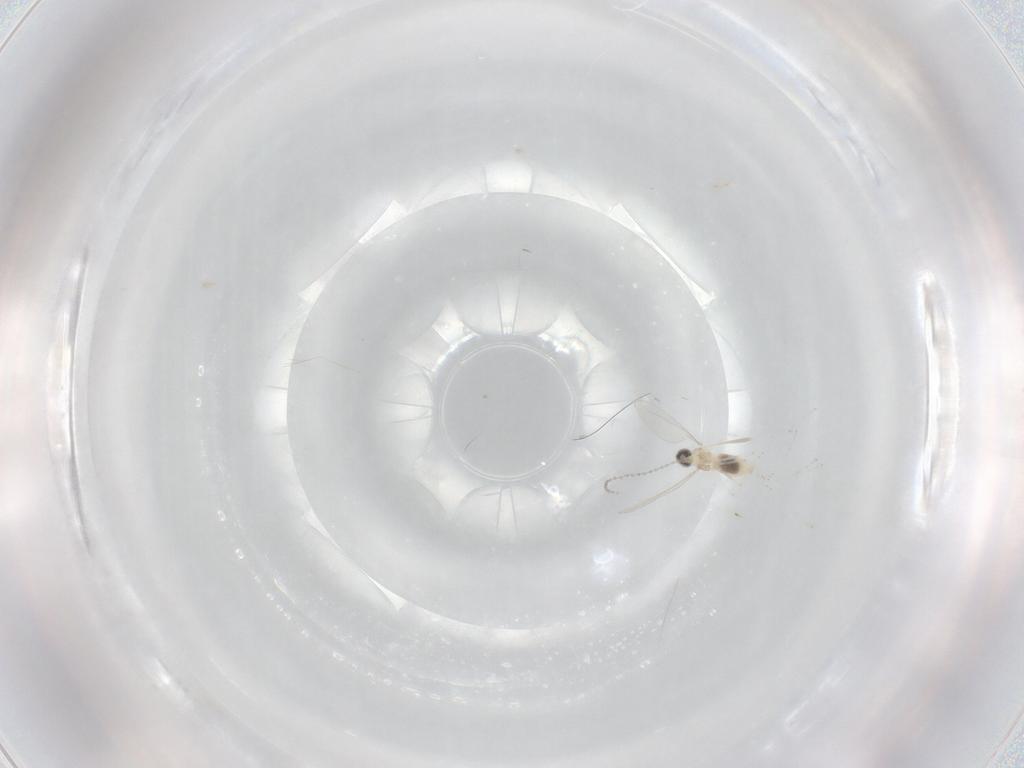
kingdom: Animalia
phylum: Arthropoda
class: Insecta
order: Diptera
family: Cecidomyiidae
